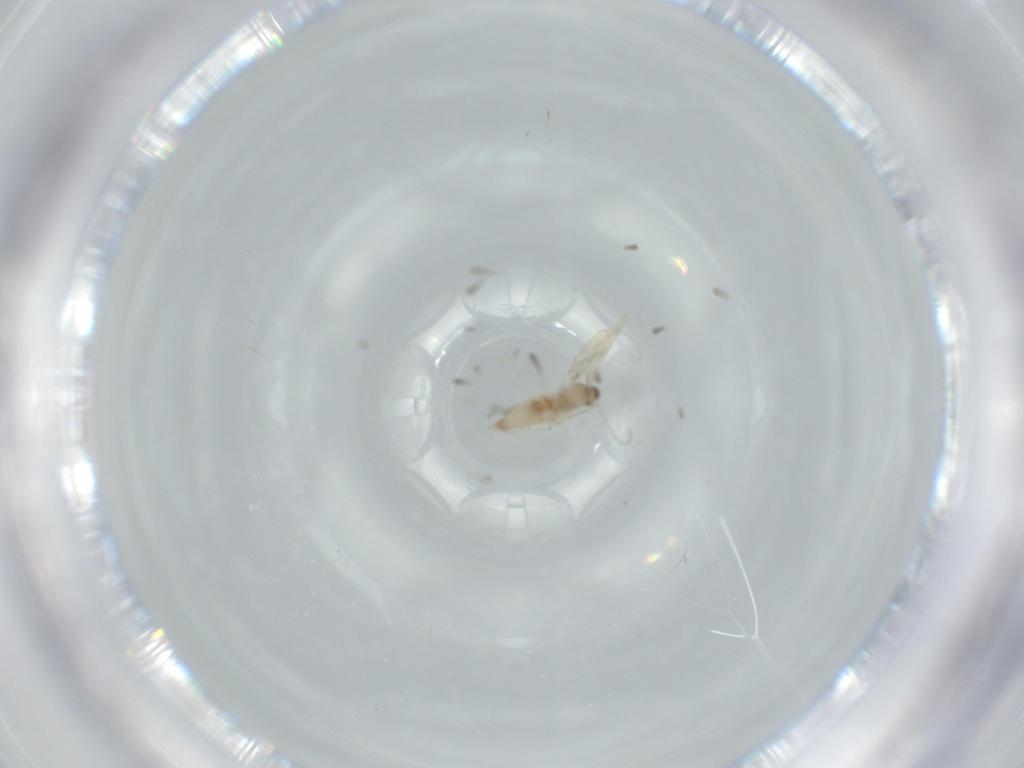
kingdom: Animalia
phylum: Arthropoda
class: Insecta
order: Diptera
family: Cecidomyiidae
